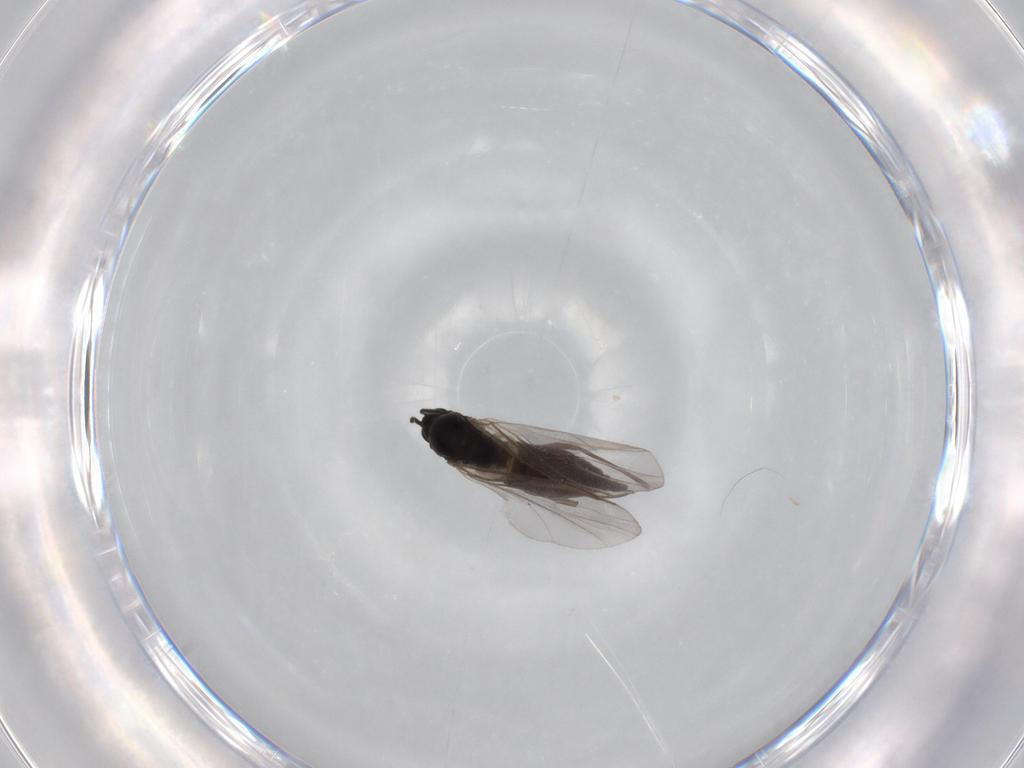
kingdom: Animalia
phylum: Arthropoda
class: Insecta
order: Diptera
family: Sciaridae
